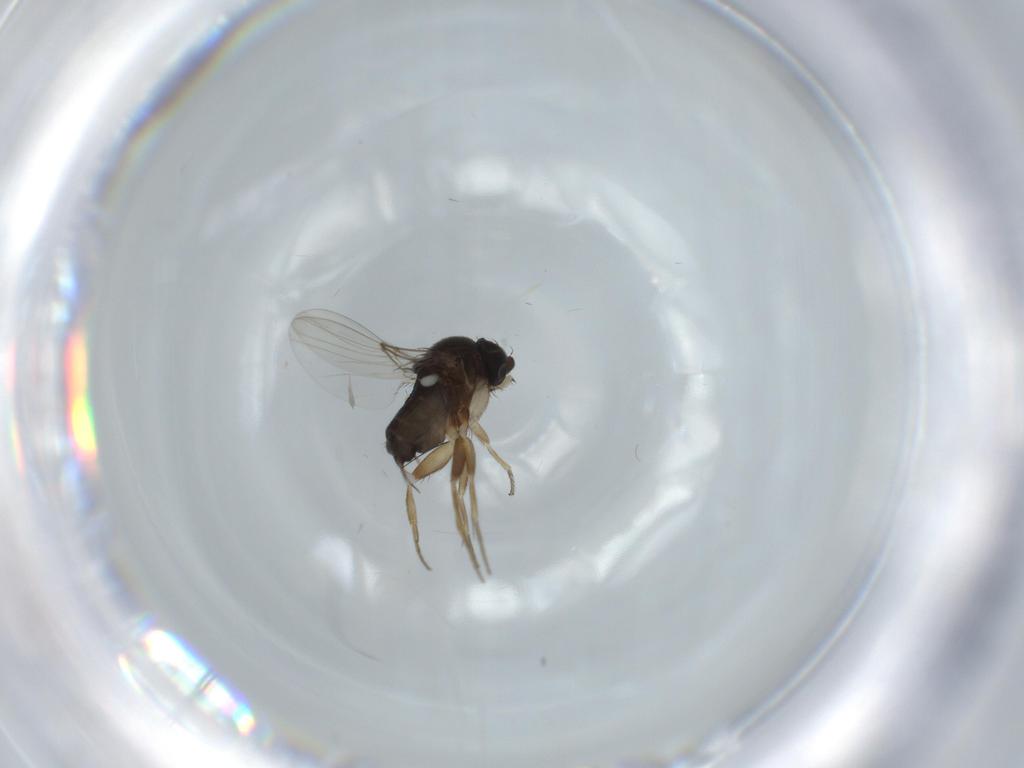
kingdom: Animalia
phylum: Arthropoda
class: Insecta
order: Diptera
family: Phoridae
